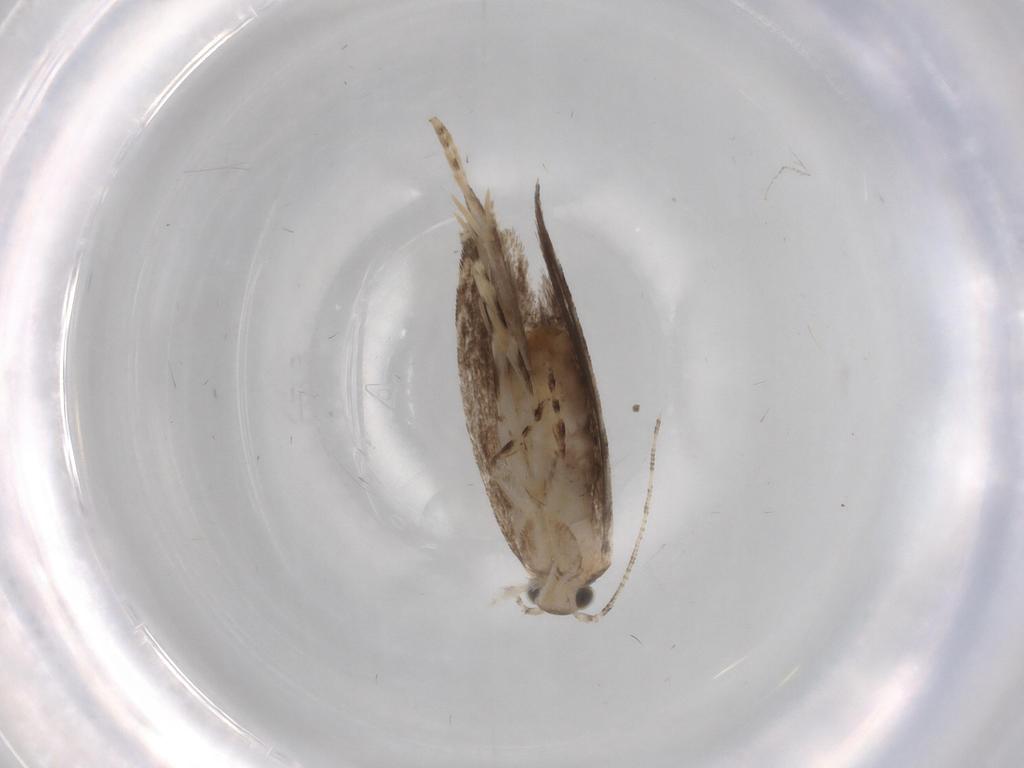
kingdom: Animalia
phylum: Arthropoda
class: Insecta
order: Lepidoptera
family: Tineidae
